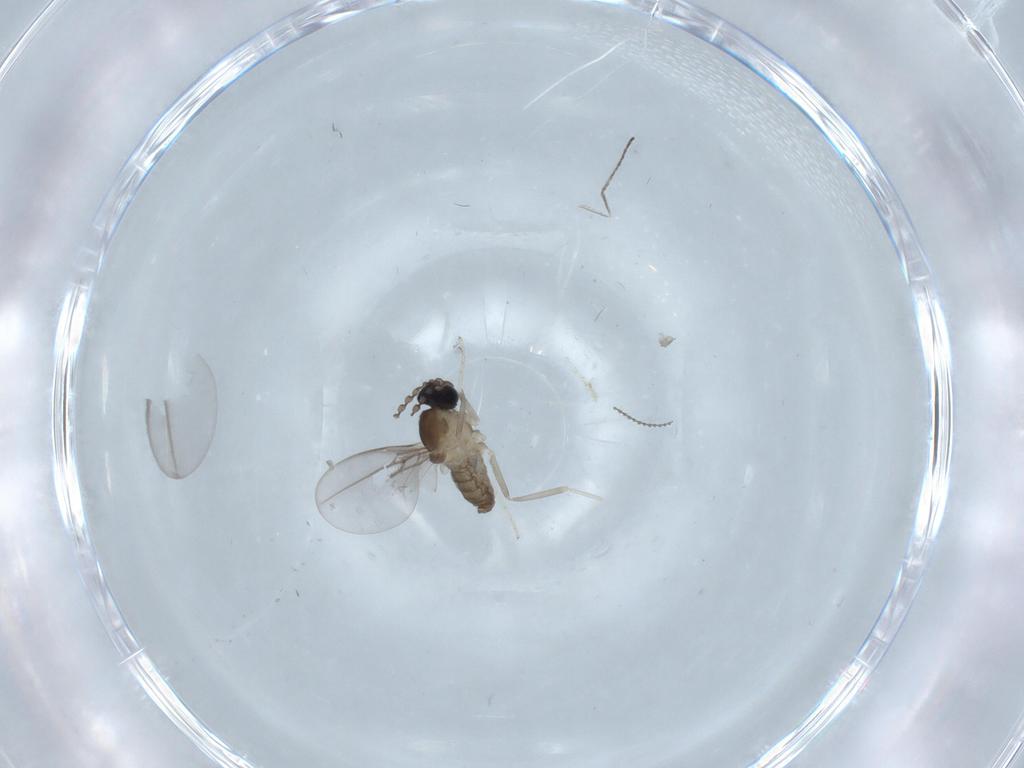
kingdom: Animalia
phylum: Arthropoda
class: Insecta
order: Diptera
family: Cecidomyiidae
